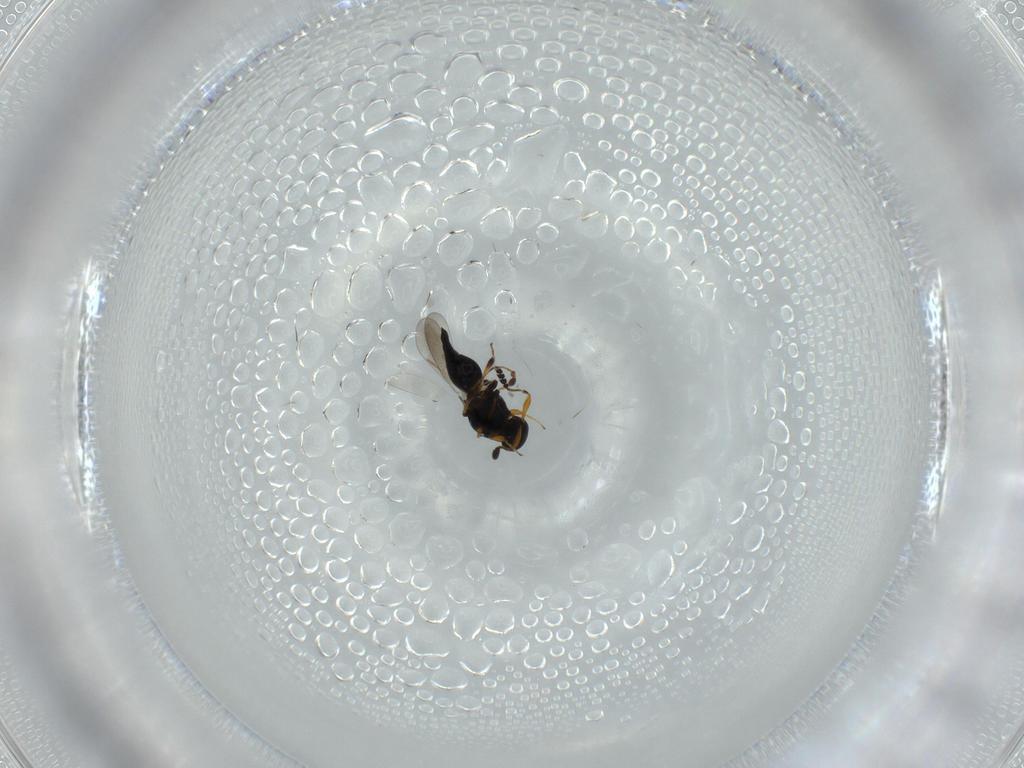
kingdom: Animalia
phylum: Arthropoda
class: Insecta
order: Hymenoptera
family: Platygastridae
